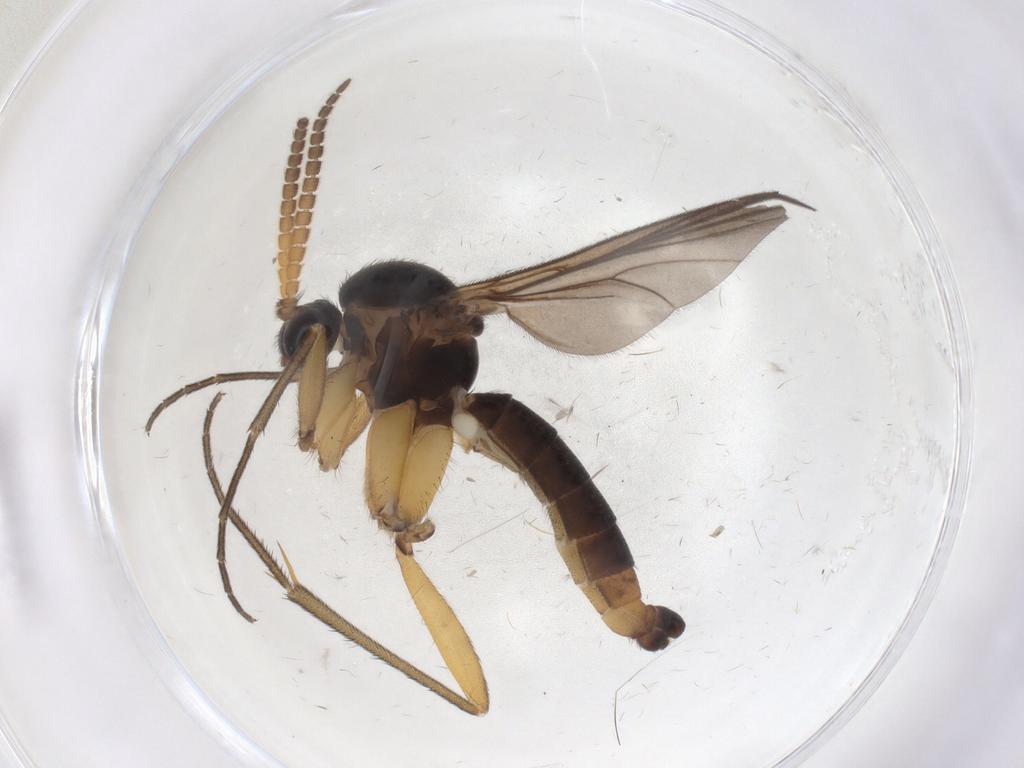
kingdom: Animalia
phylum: Arthropoda
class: Insecta
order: Diptera
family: Mycetophilidae
